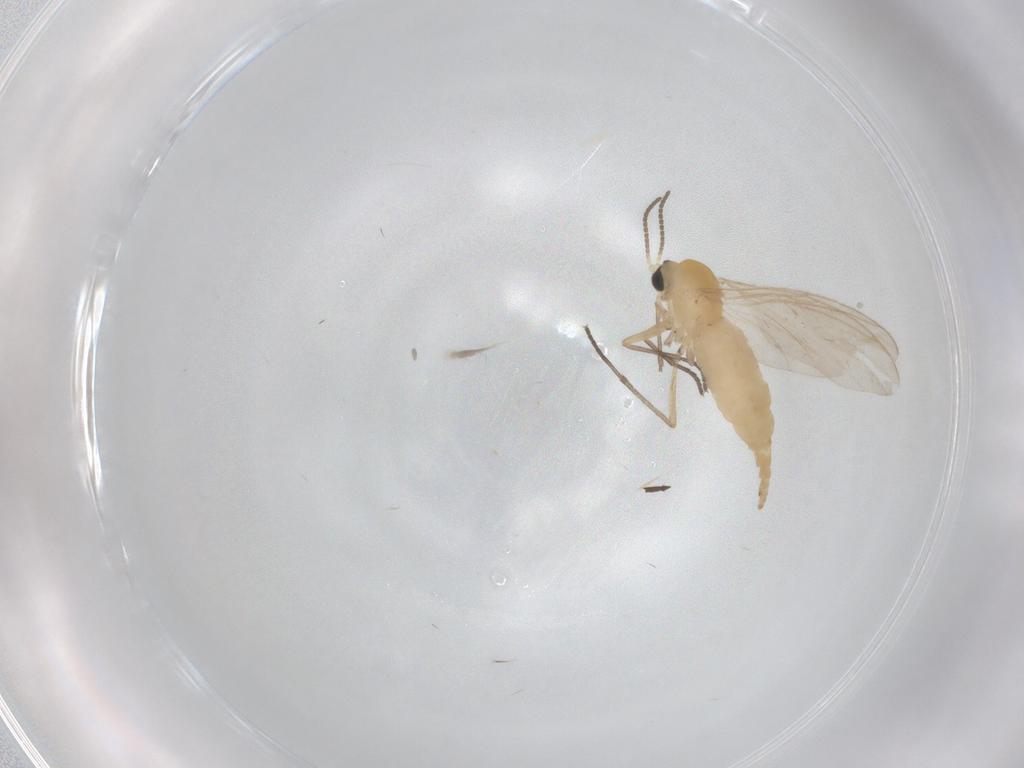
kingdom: Animalia
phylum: Arthropoda
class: Insecta
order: Diptera
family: Tipulidae
